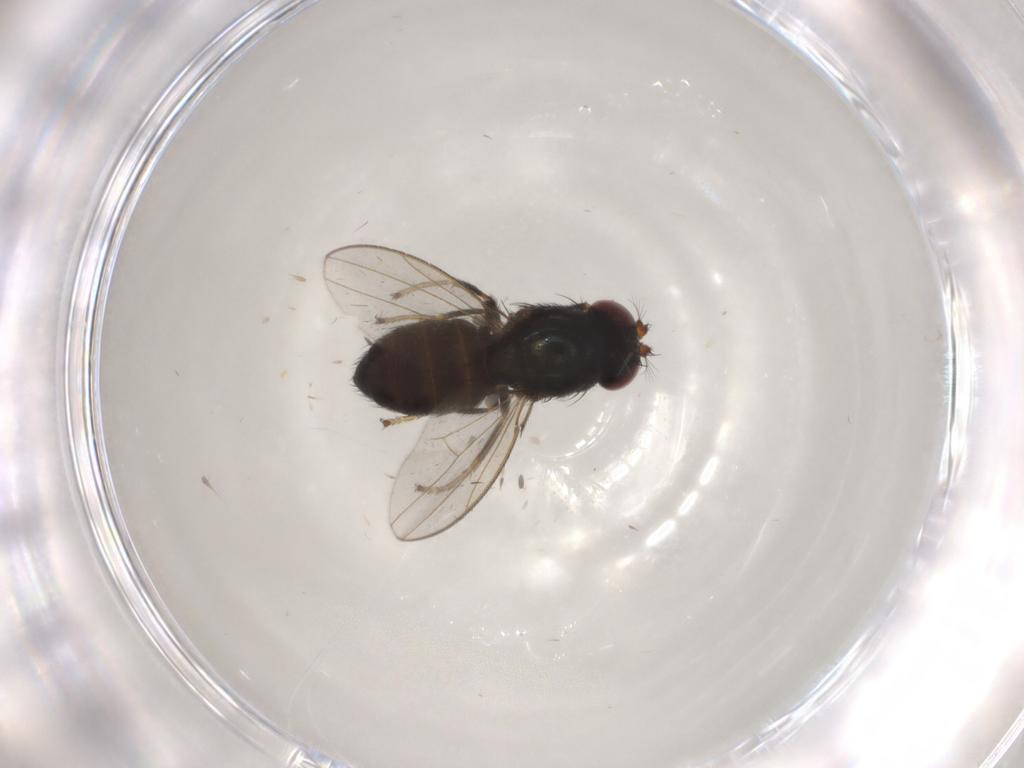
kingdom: Animalia
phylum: Arthropoda
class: Insecta
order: Diptera
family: Ephydridae
